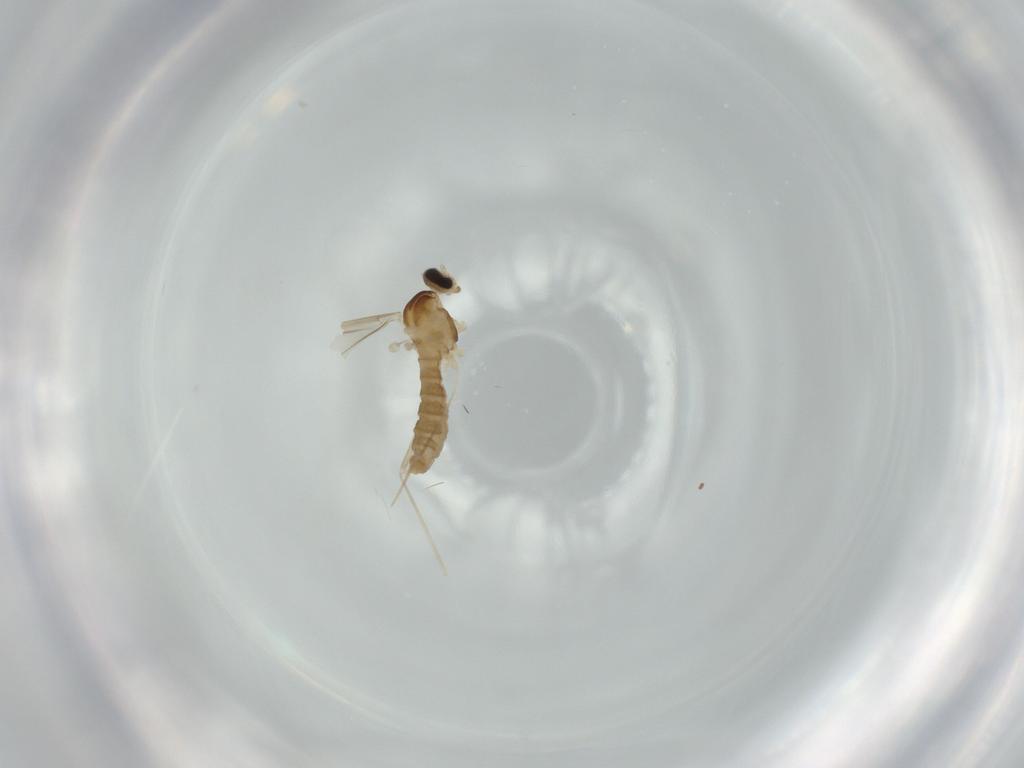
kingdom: Animalia
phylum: Arthropoda
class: Insecta
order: Diptera
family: Cecidomyiidae
